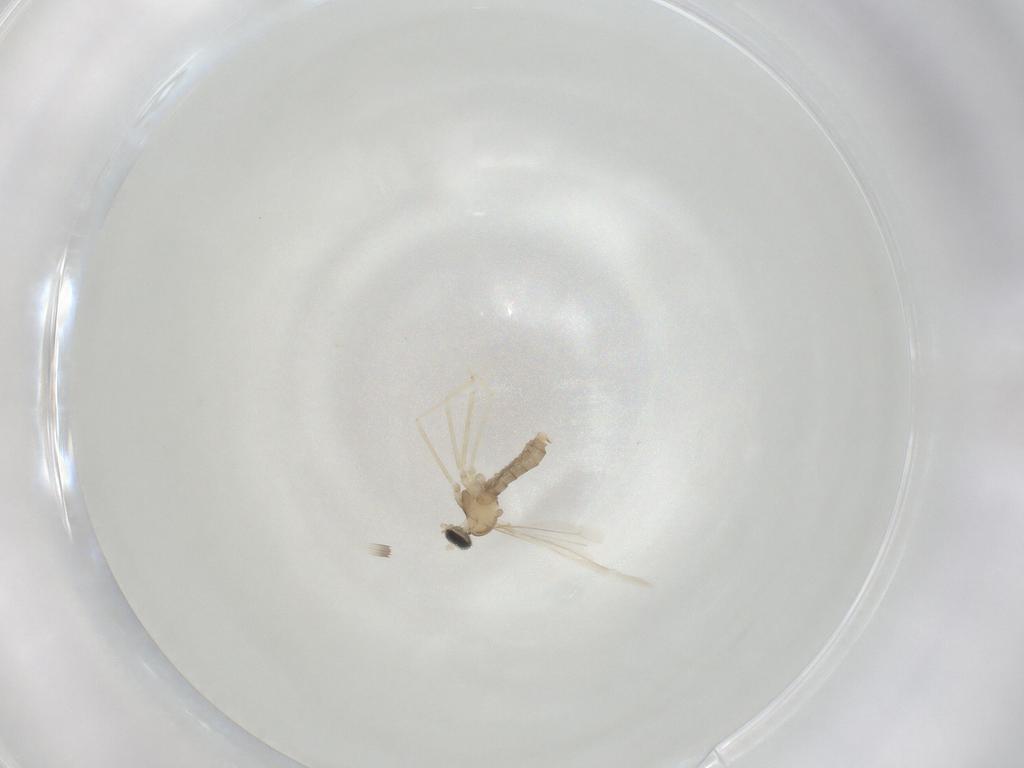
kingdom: Animalia
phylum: Arthropoda
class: Insecta
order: Diptera
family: Cecidomyiidae
